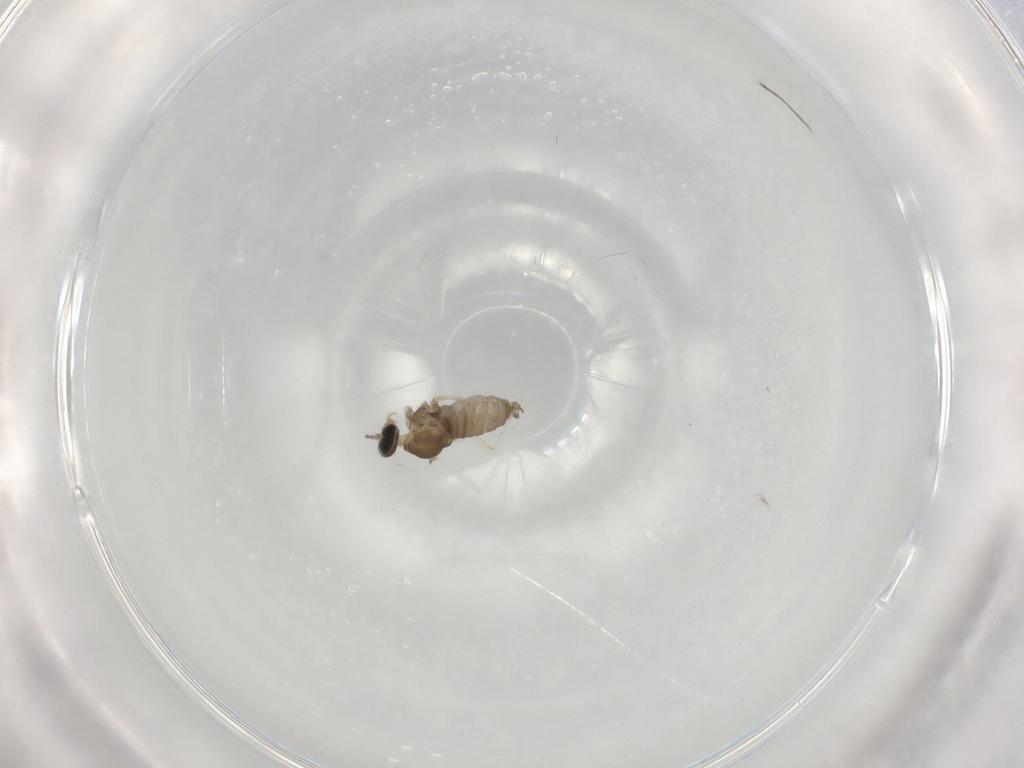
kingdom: Animalia
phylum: Arthropoda
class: Insecta
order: Diptera
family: Cecidomyiidae
